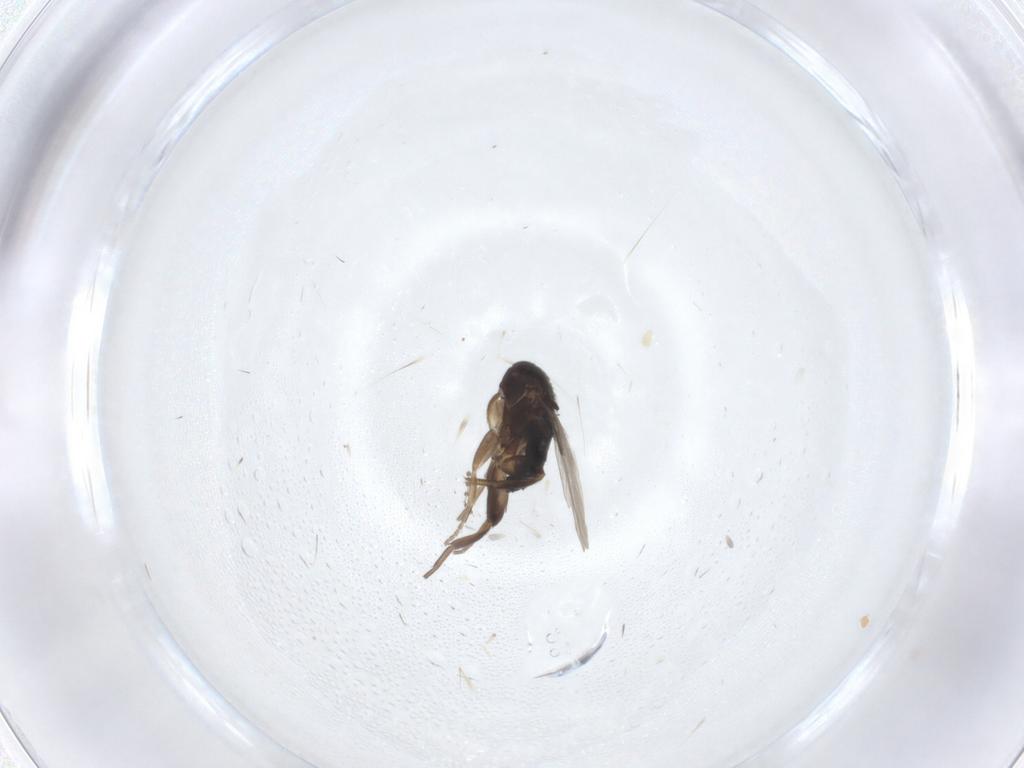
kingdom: Animalia
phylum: Arthropoda
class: Insecta
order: Diptera
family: Phoridae
